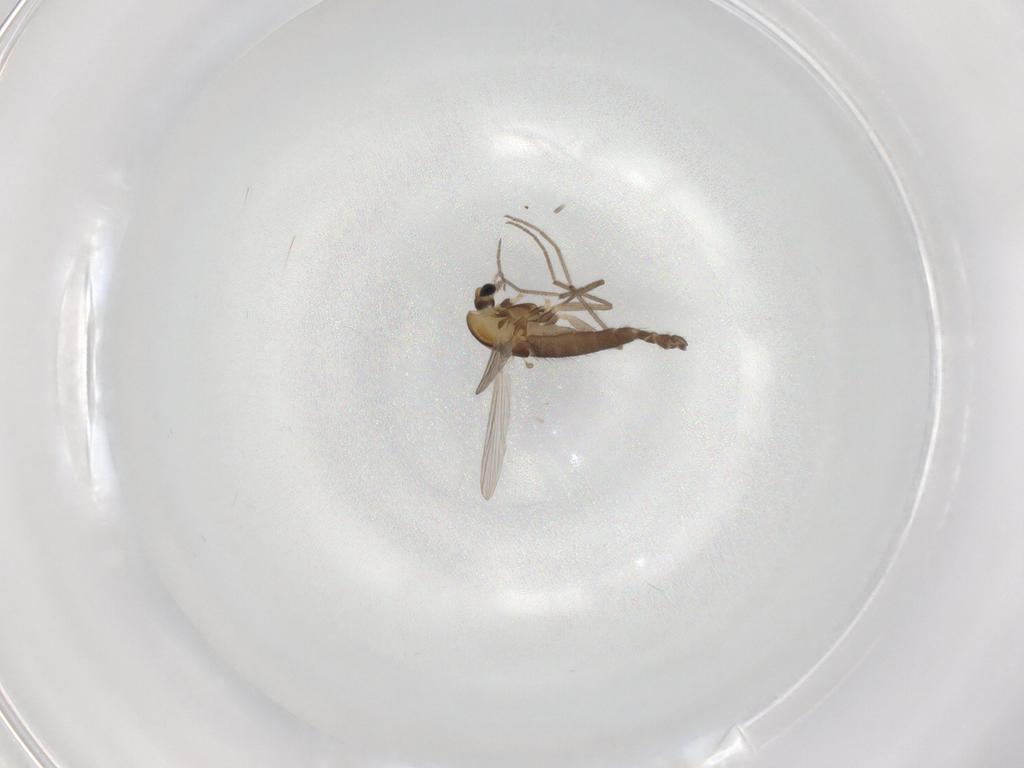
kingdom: Animalia
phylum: Arthropoda
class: Insecta
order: Diptera
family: Chironomidae
